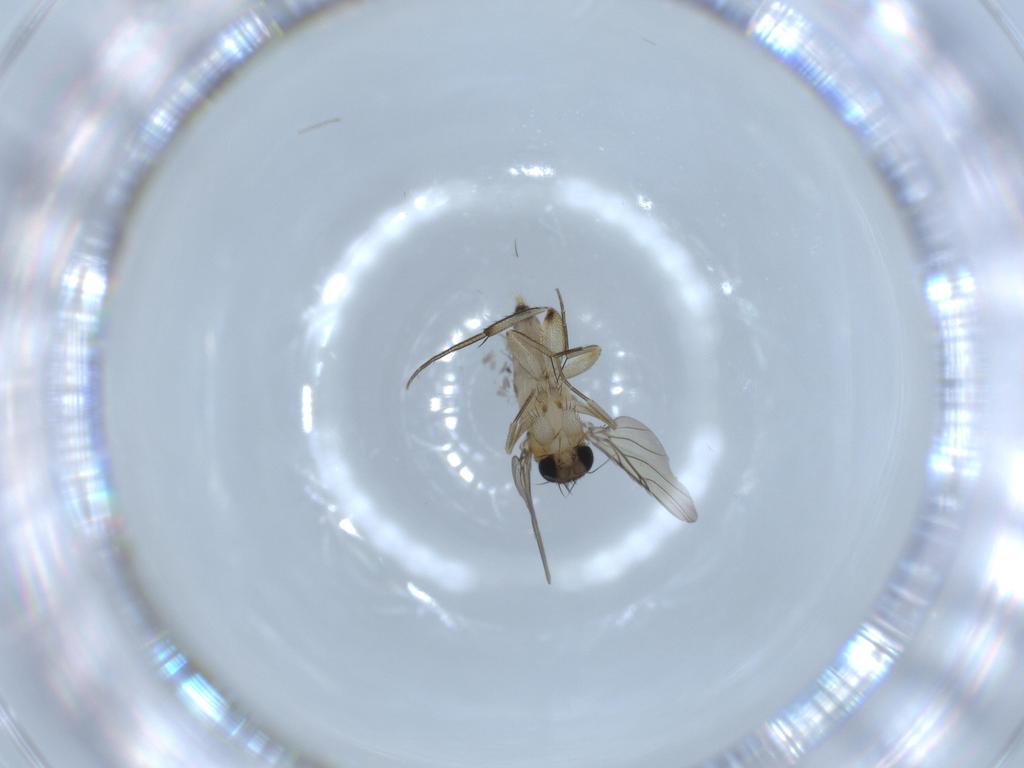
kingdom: Animalia
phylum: Arthropoda
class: Insecta
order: Diptera
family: Phoridae
